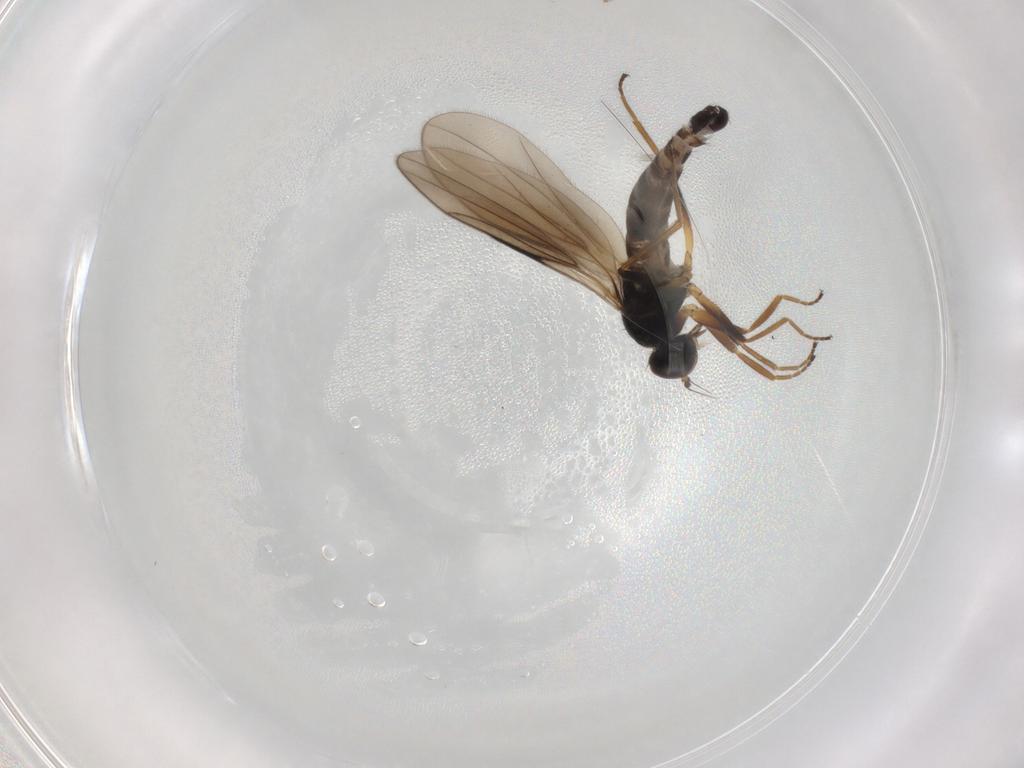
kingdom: Animalia
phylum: Arthropoda
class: Insecta
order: Diptera
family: Hybotidae
